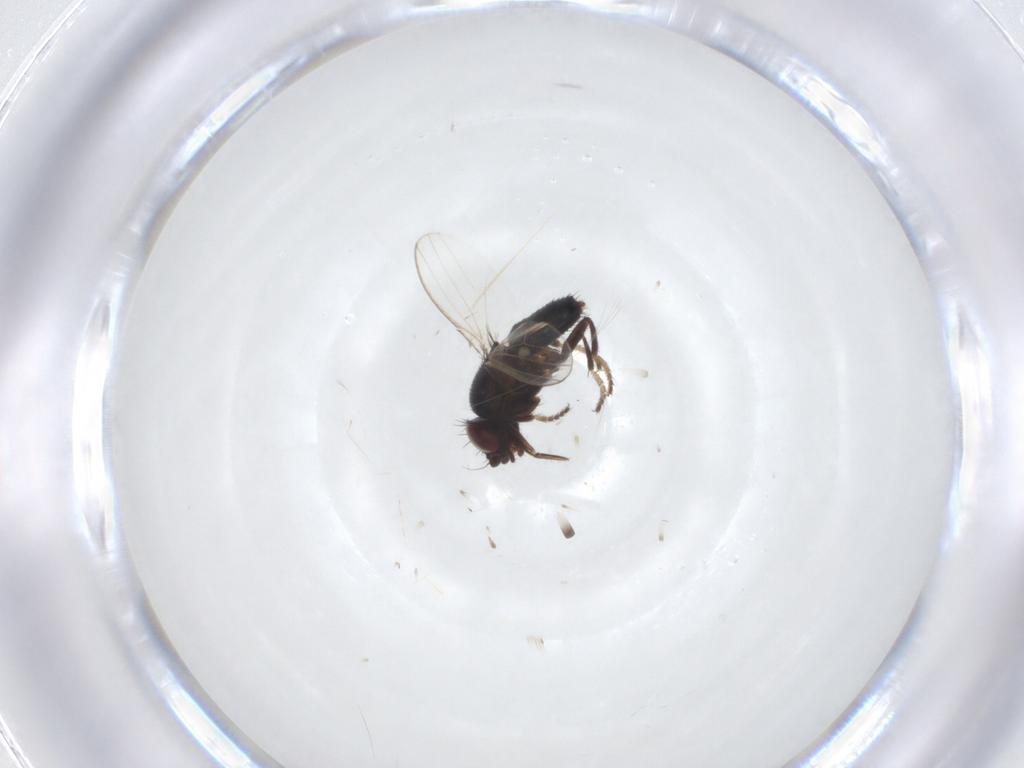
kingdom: Animalia
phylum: Arthropoda
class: Insecta
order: Diptera
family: Milichiidae
